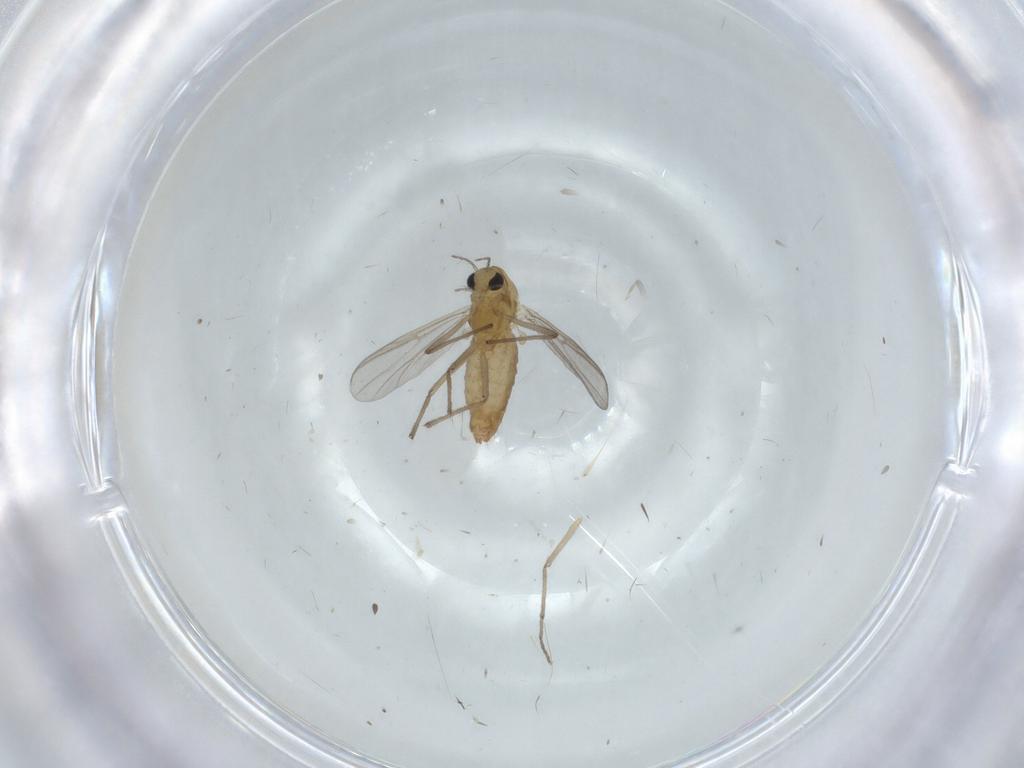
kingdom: Animalia
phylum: Arthropoda
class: Insecta
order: Diptera
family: Chironomidae
